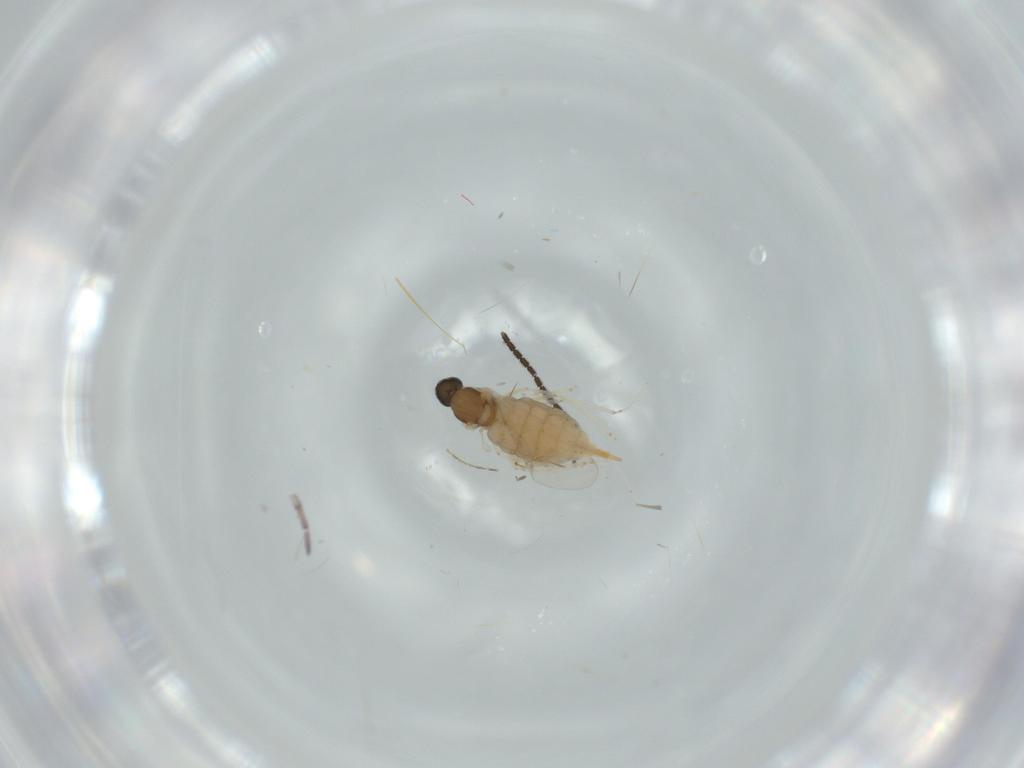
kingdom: Animalia
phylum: Arthropoda
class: Insecta
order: Diptera
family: Cecidomyiidae
